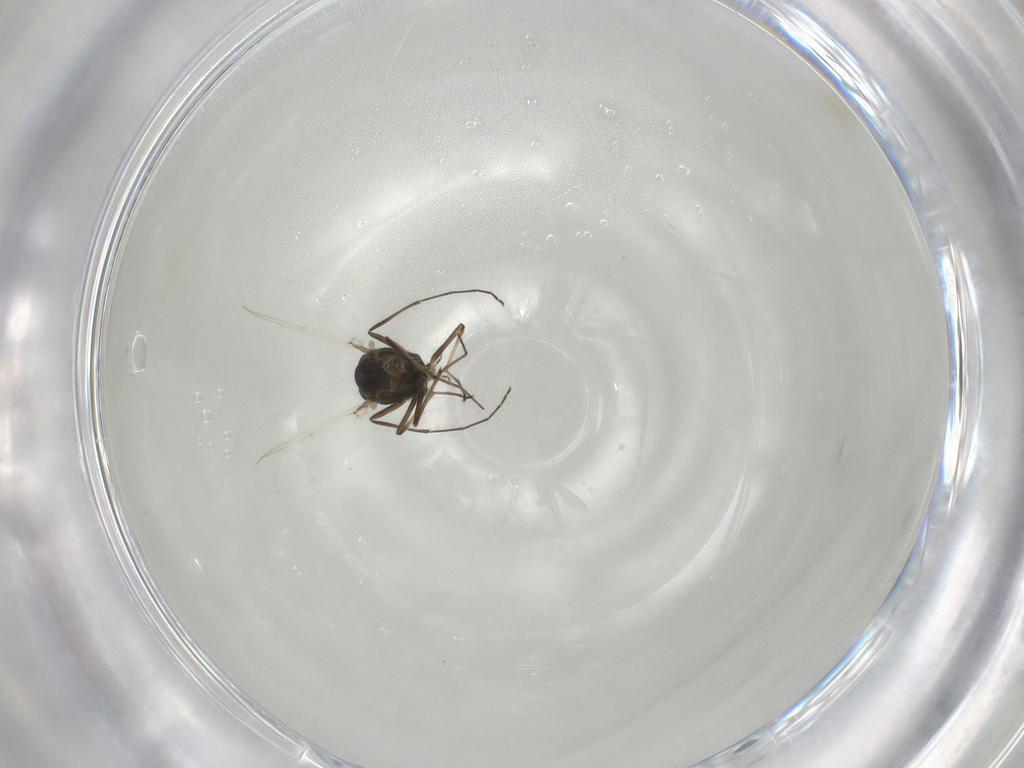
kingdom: Animalia
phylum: Arthropoda
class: Insecta
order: Diptera
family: Chironomidae
